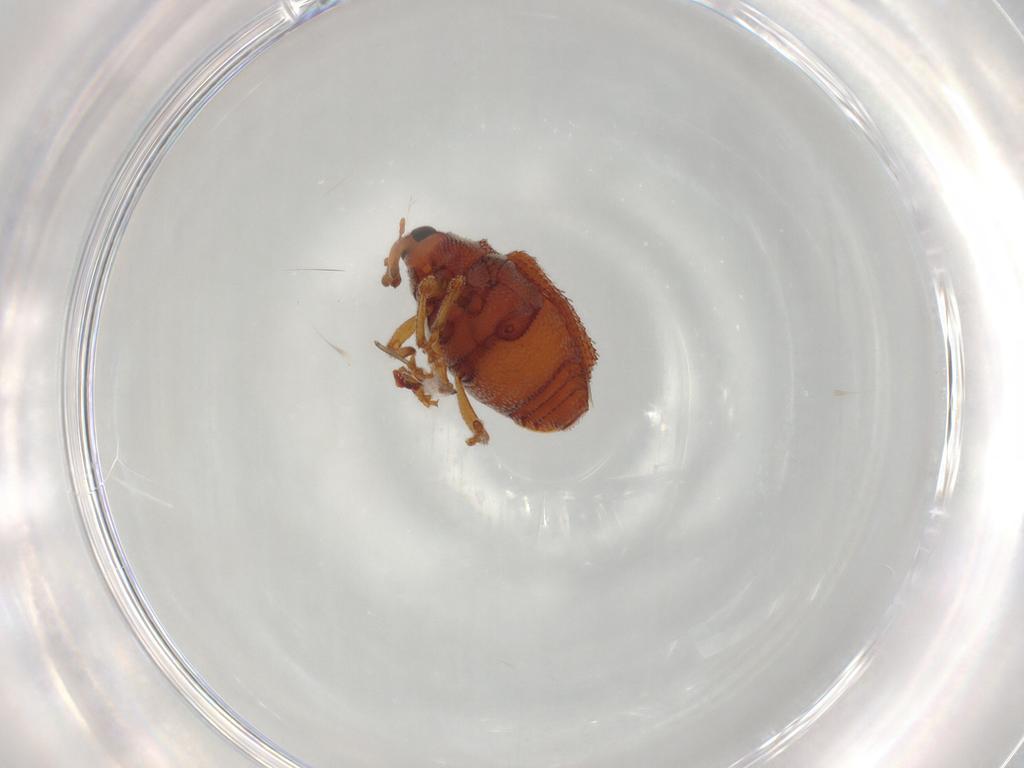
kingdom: Animalia
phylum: Arthropoda
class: Insecta
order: Coleoptera
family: Curculionidae
